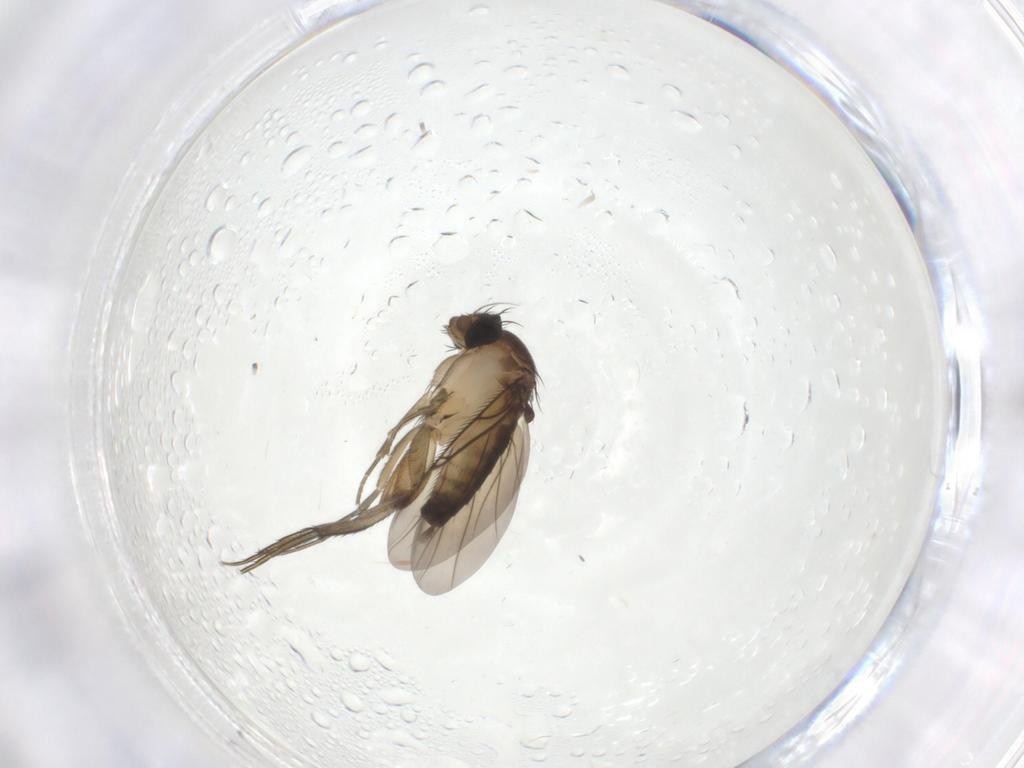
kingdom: Animalia
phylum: Arthropoda
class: Insecta
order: Diptera
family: Phoridae
